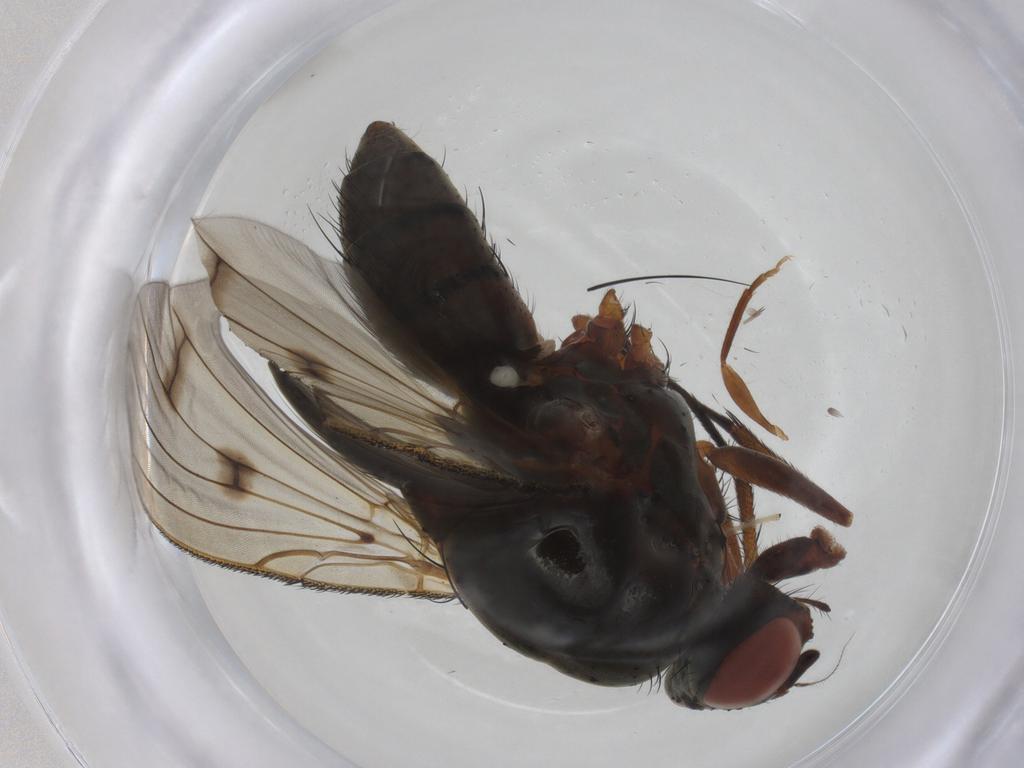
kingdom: Animalia
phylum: Arthropoda
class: Insecta
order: Diptera
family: Anthomyiidae
